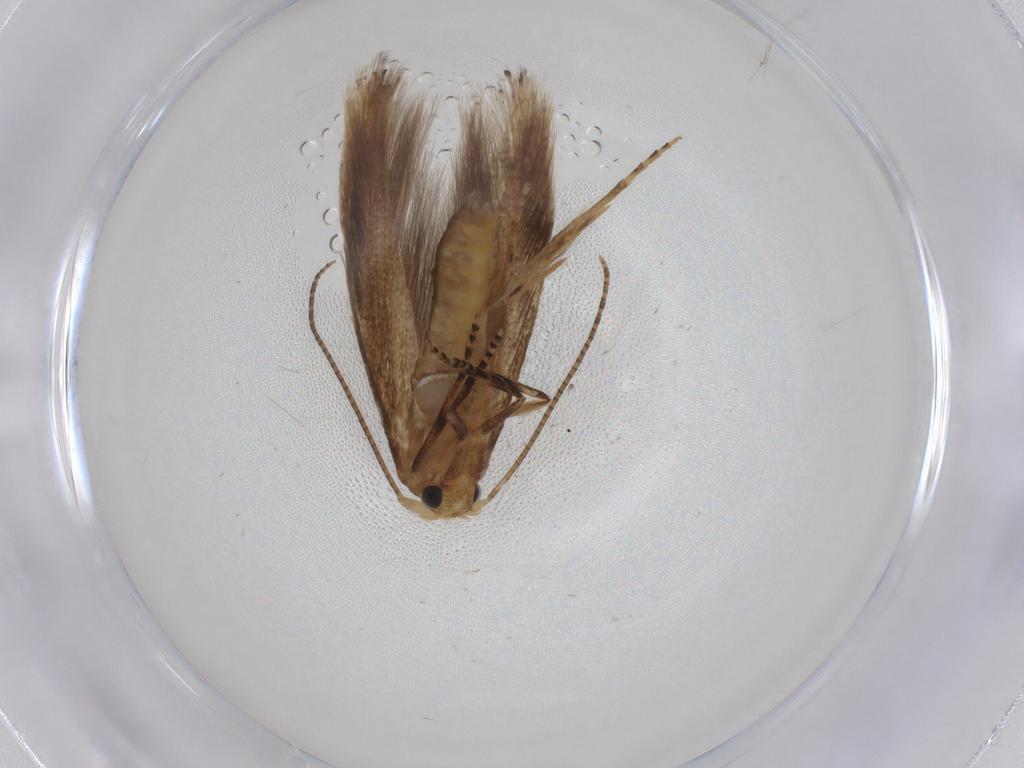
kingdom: Animalia
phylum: Arthropoda
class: Insecta
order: Lepidoptera
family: Bucculatricidae
